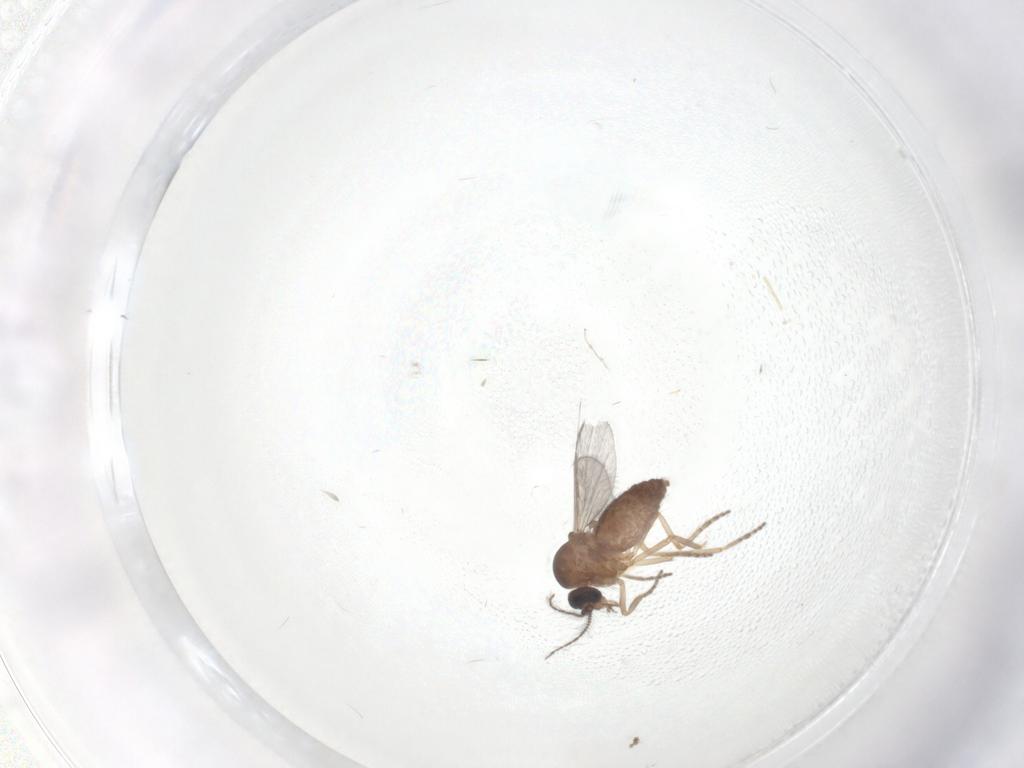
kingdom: Animalia
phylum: Arthropoda
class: Insecta
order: Diptera
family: Ceratopogonidae
